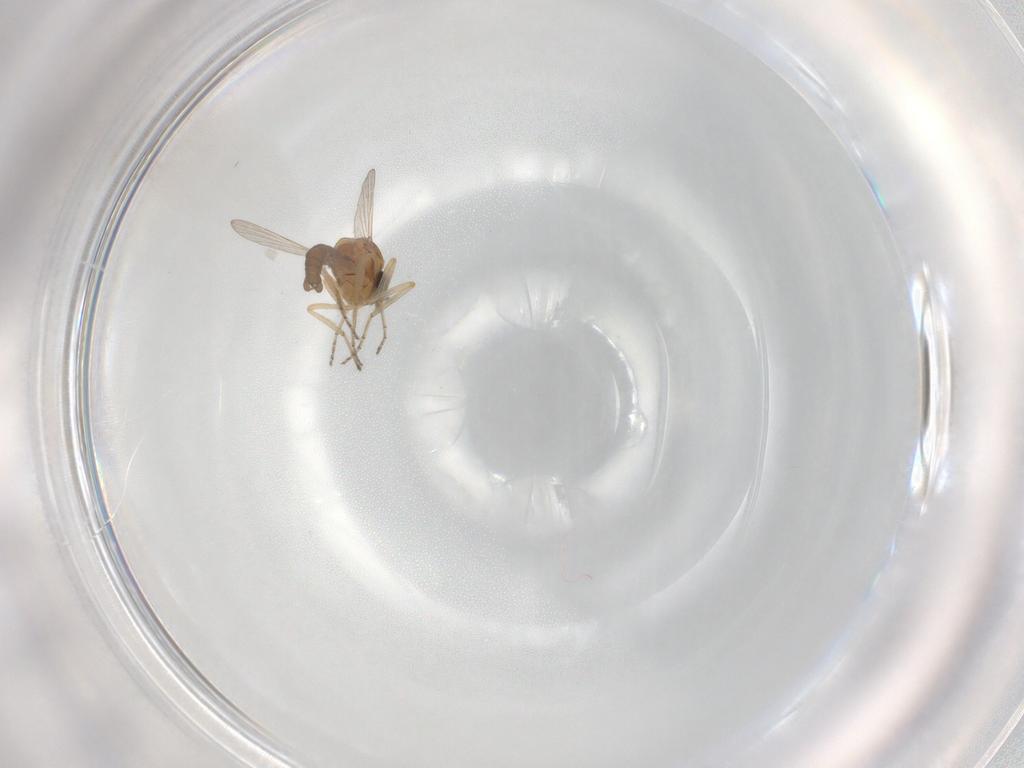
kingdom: Animalia
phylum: Arthropoda
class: Insecta
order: Diptera
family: Ceratopogonidae
